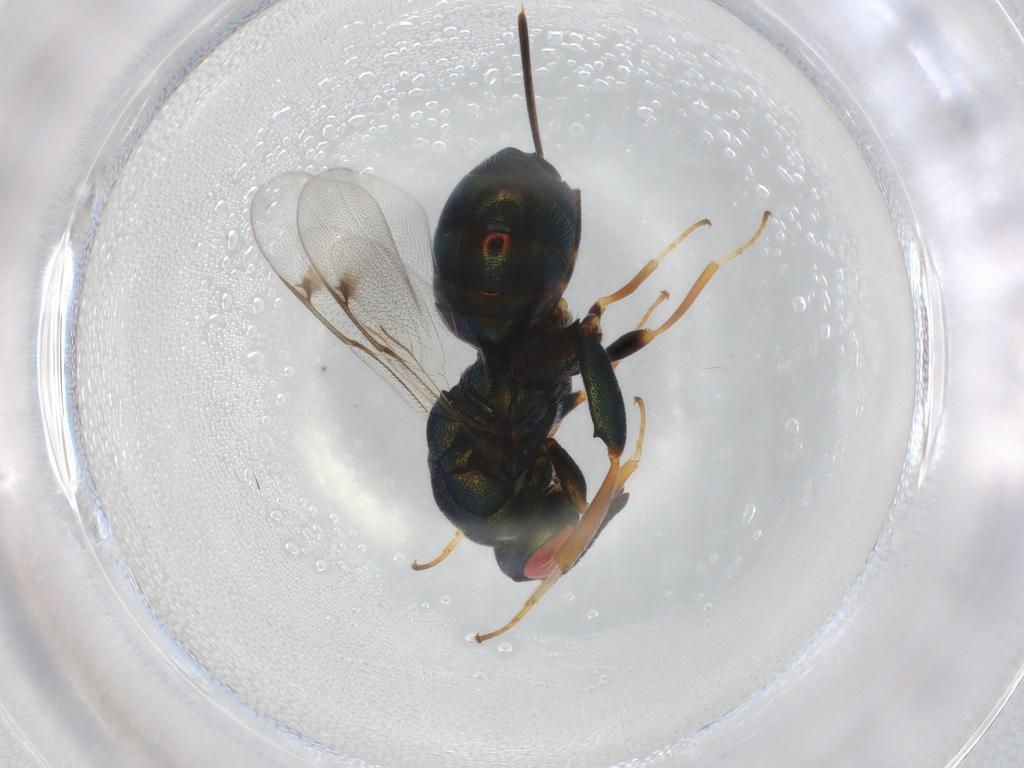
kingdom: Animalia
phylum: Arthropoda
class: Insecta
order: Hymenoptera
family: Torymidae
